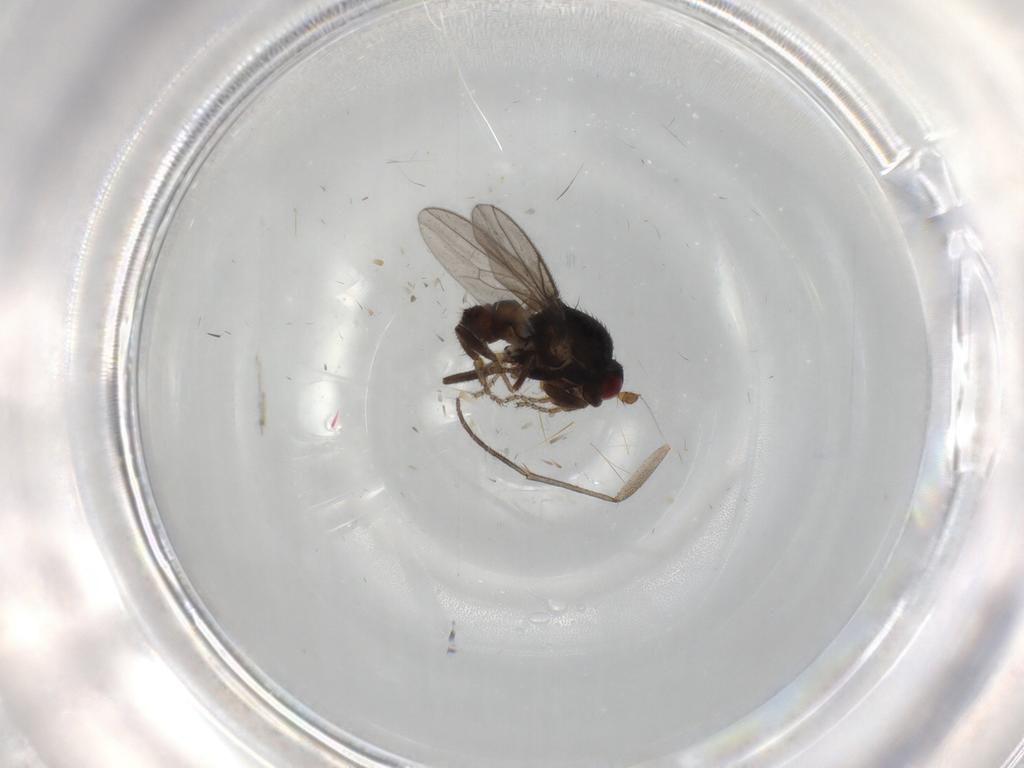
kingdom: Animalia
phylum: Arthropoda
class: Insecta
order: Diptera
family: Sphaeroceridae
